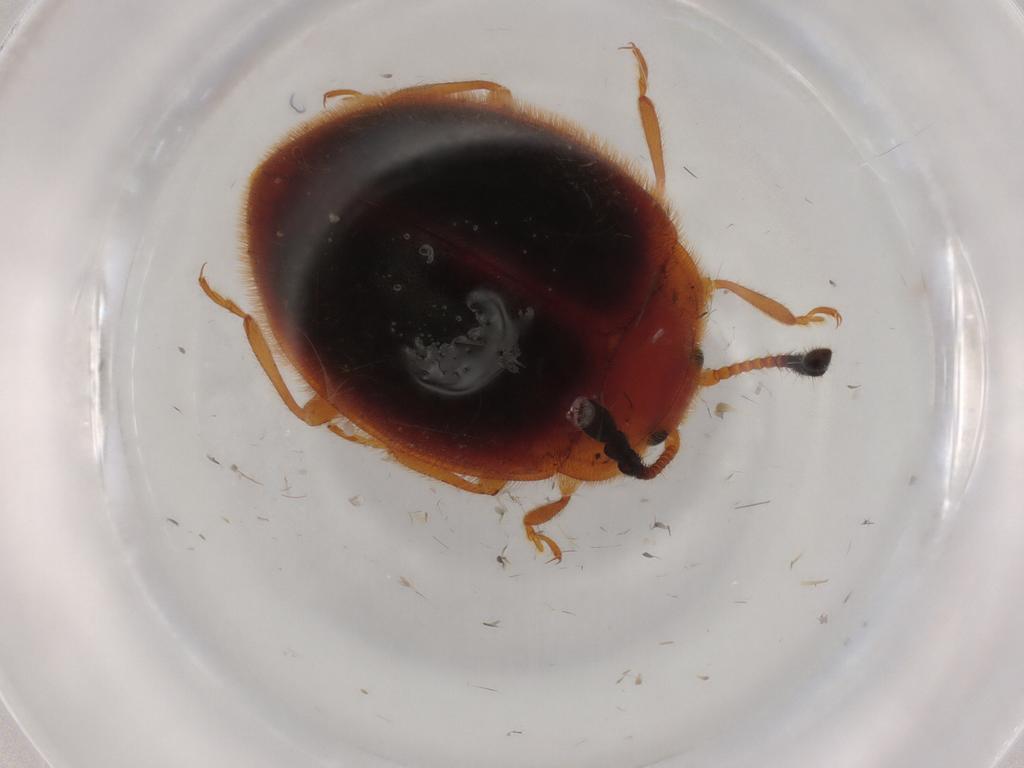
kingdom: Animalia
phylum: Arthropoda
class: Insecta
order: Coleoptera
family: Endomychidae
